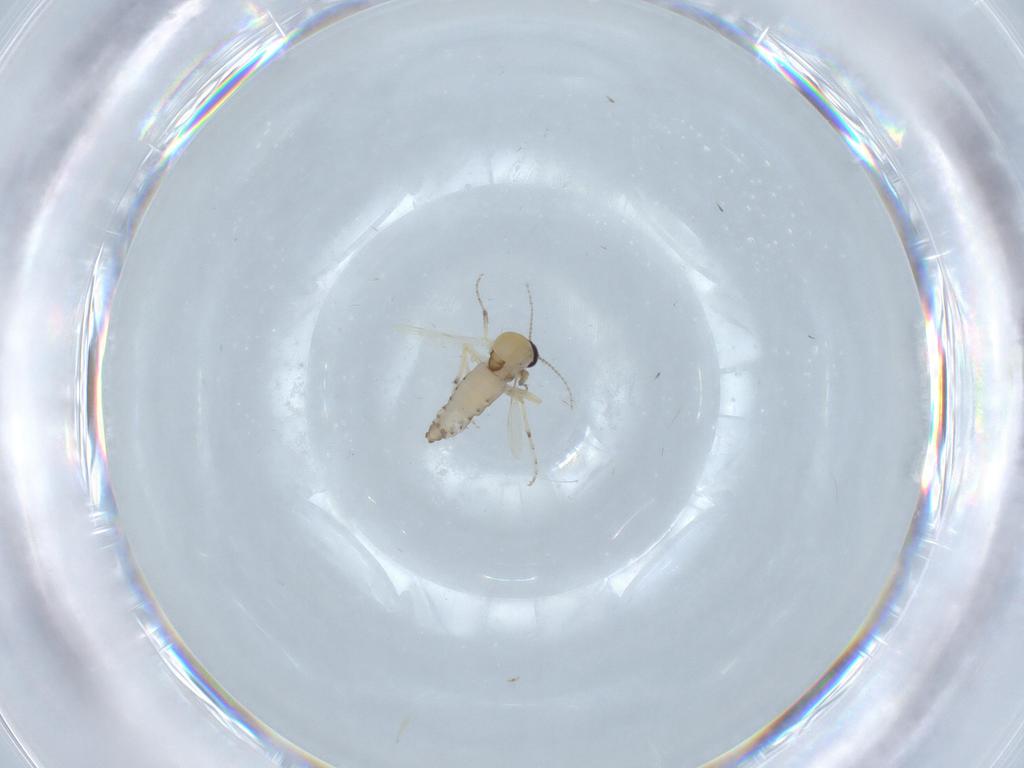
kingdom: Animalia
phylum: Arthropoda
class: Insecta
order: Diptera
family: Ceratopogonidae
